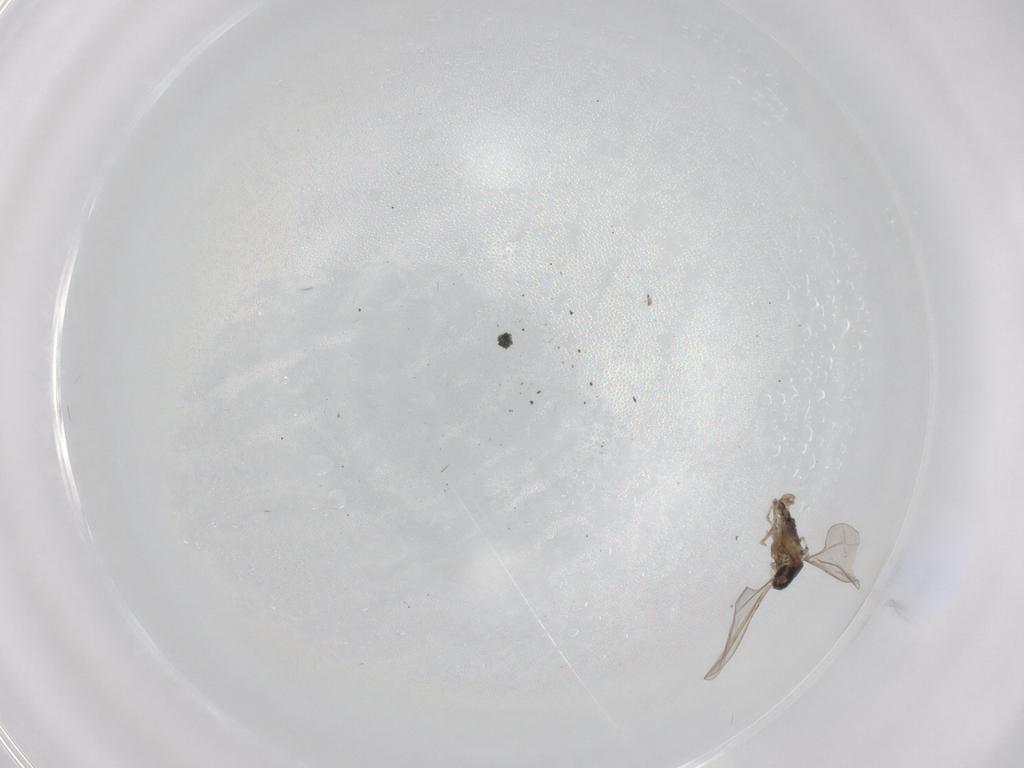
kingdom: Animalia
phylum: Arthropoda
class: Insecta
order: Diptera
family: Cecidomyiidae
